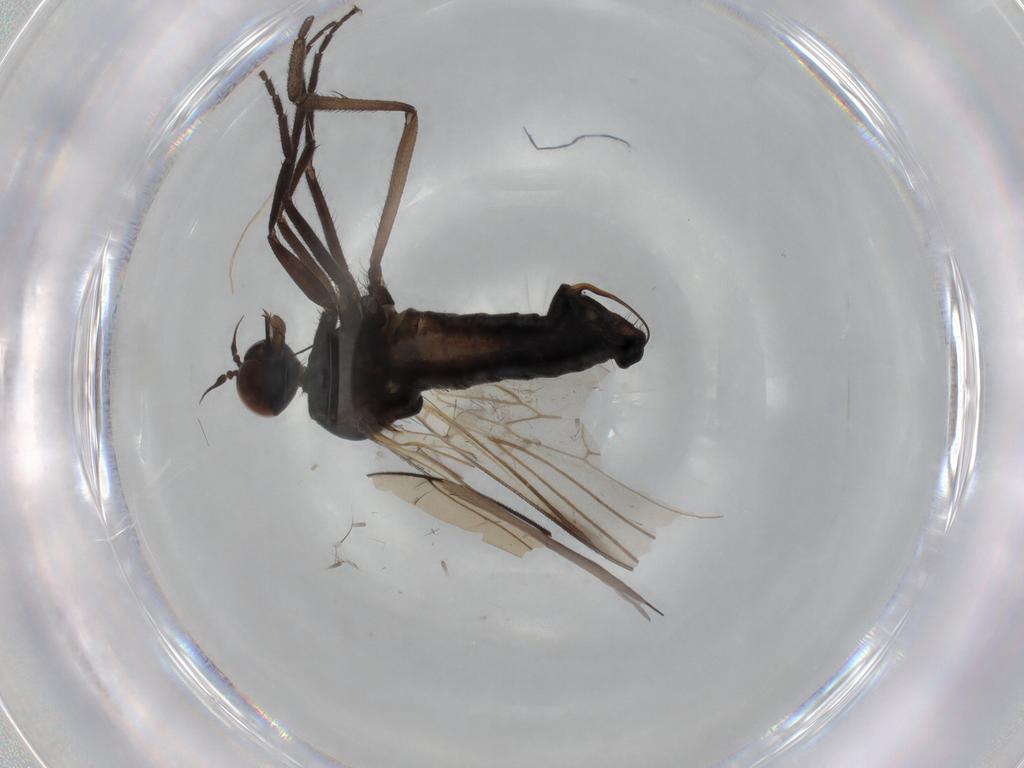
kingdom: Animalia
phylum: Arthropoda
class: Insecta
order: Diptera
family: Empididae
